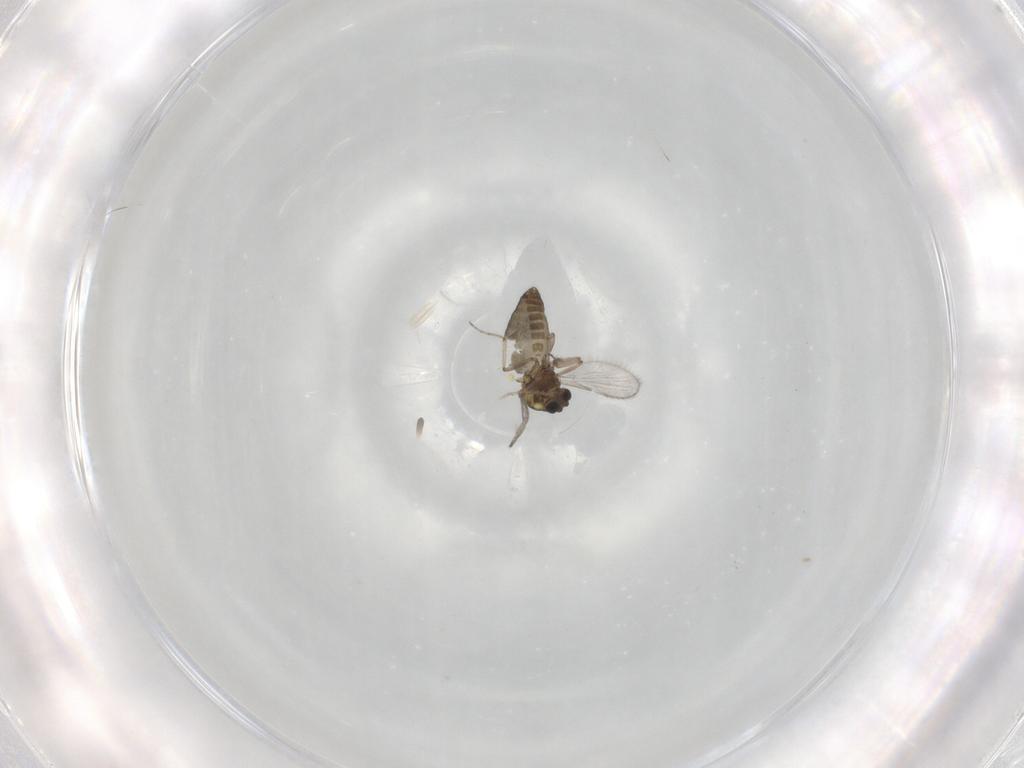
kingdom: Animalia
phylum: Arthropoda
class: Insecta
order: Diptera
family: Ceratopogonidae
